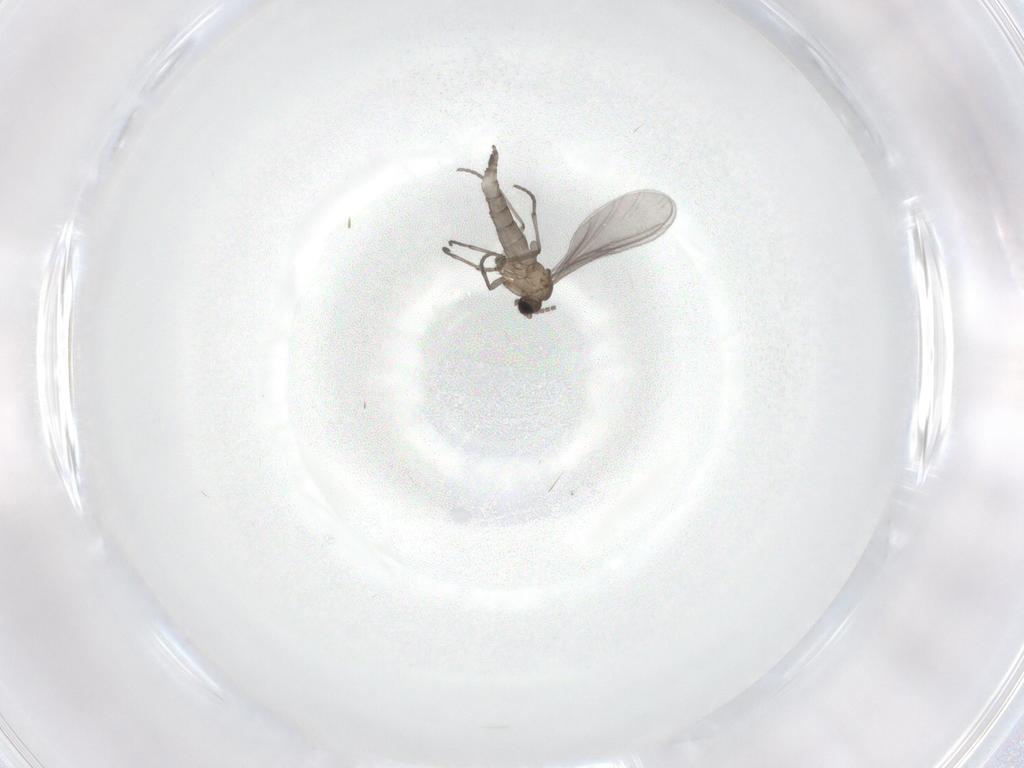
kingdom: Animalia
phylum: Arthropoda
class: Insecta
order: Diptera
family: Sciaridae
